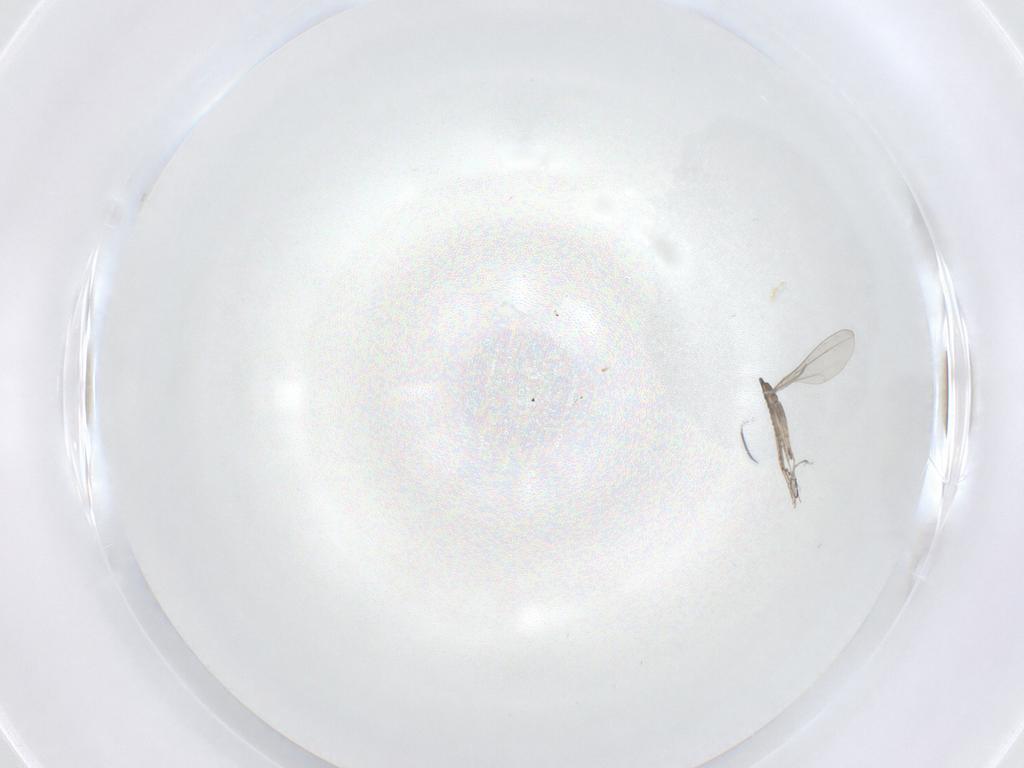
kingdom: Animalia
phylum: Arthropoda
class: Insecta
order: Diptera
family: Cecidomyiidae
